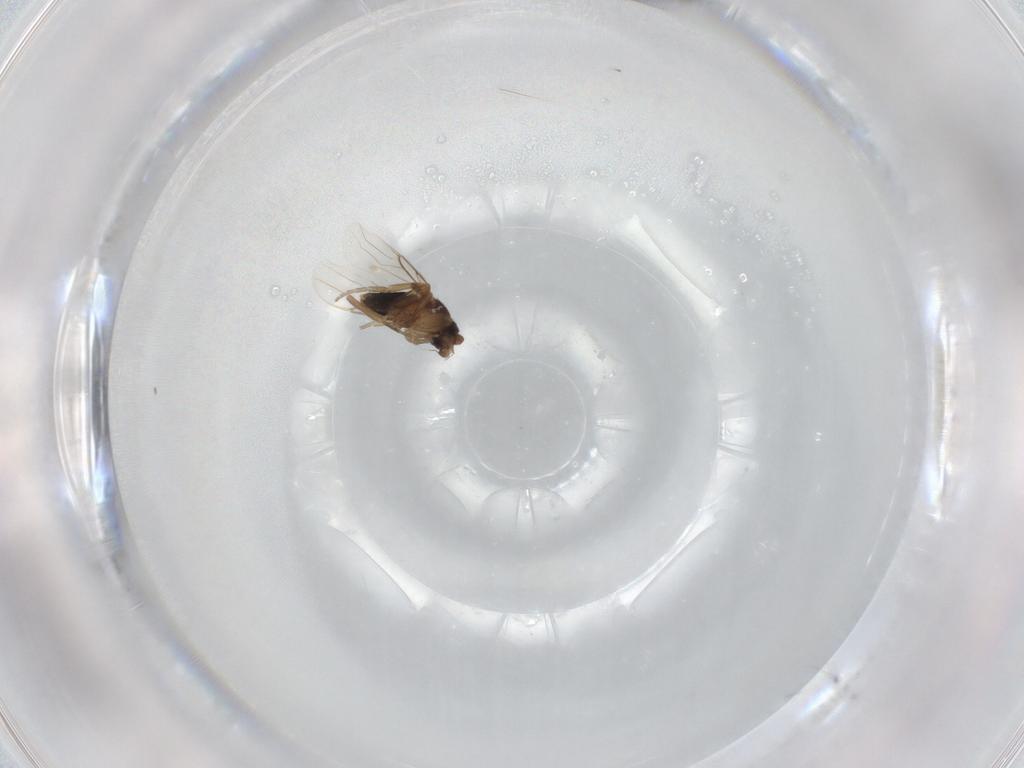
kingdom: Animalia
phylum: Arthropoda
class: Insecta
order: Diptera
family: Phoridae
